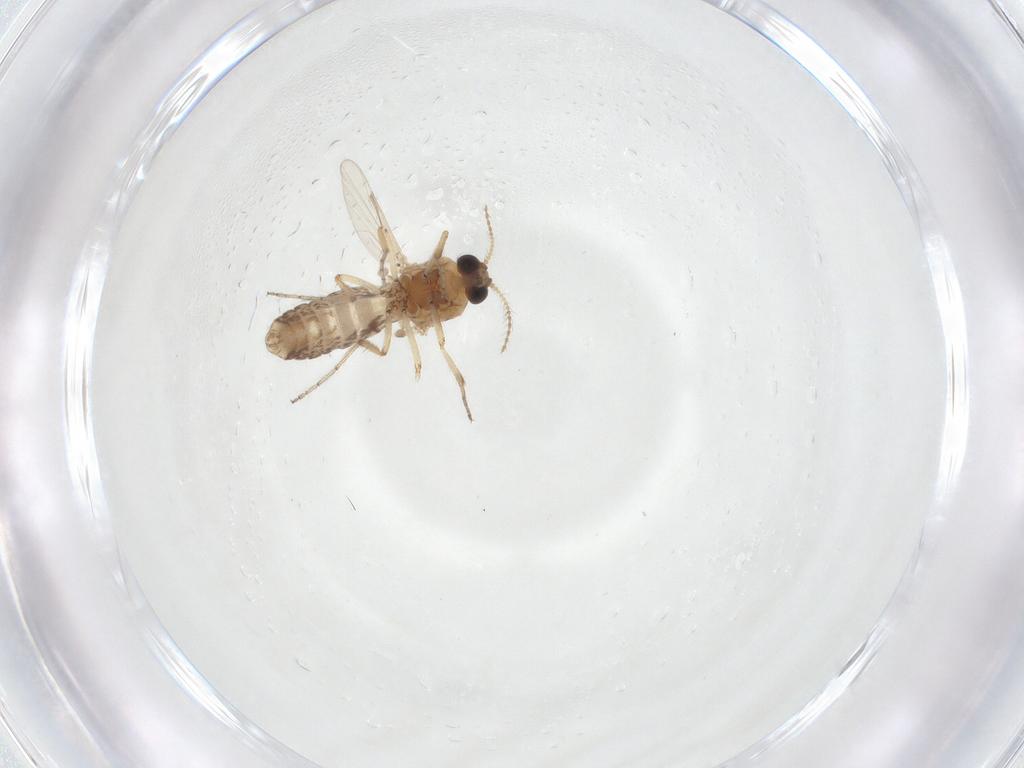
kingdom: Animalia
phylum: Arthropoda
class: Insecta
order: Diptera
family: Ceratopogonidae
